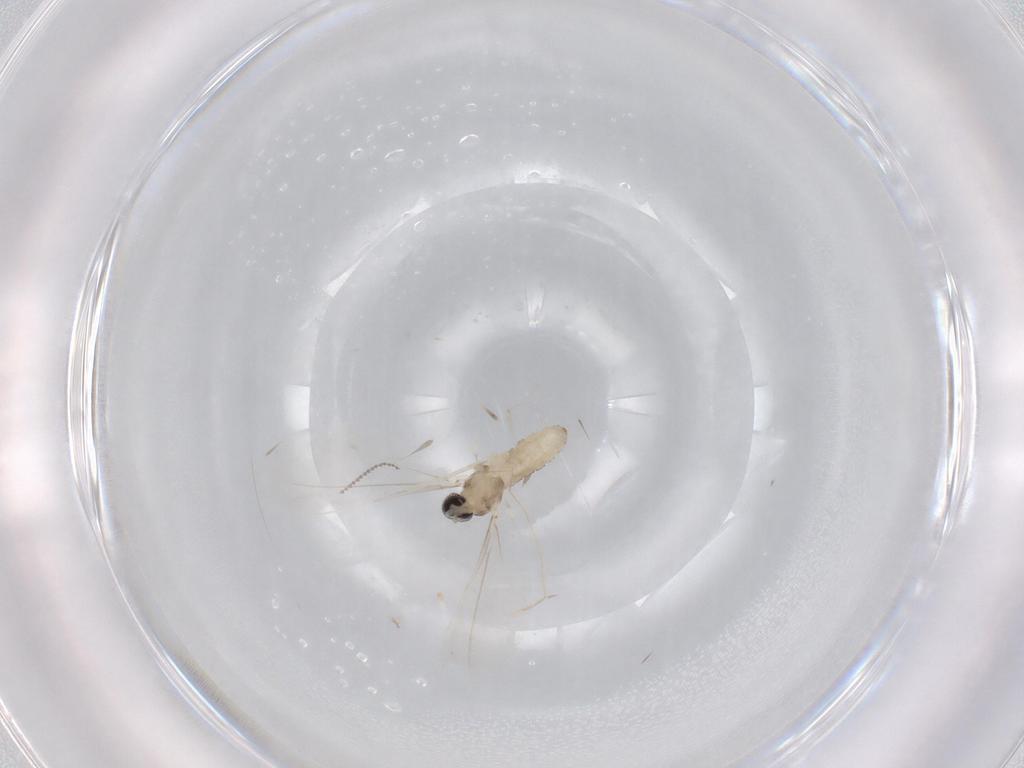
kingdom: Animalia
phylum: Arthropoda
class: Insecta
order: Diptera
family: Cecidomyiidae
